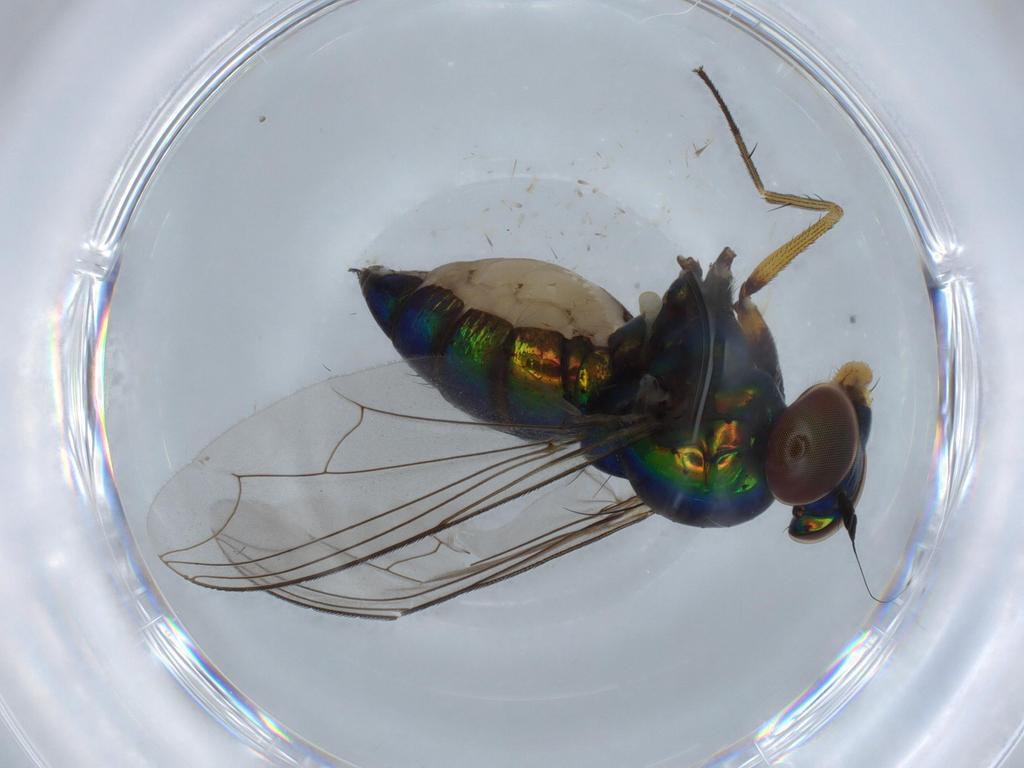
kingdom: Animalia
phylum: Arthropoda
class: Insecta
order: Diptera
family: Dolichopodidae
